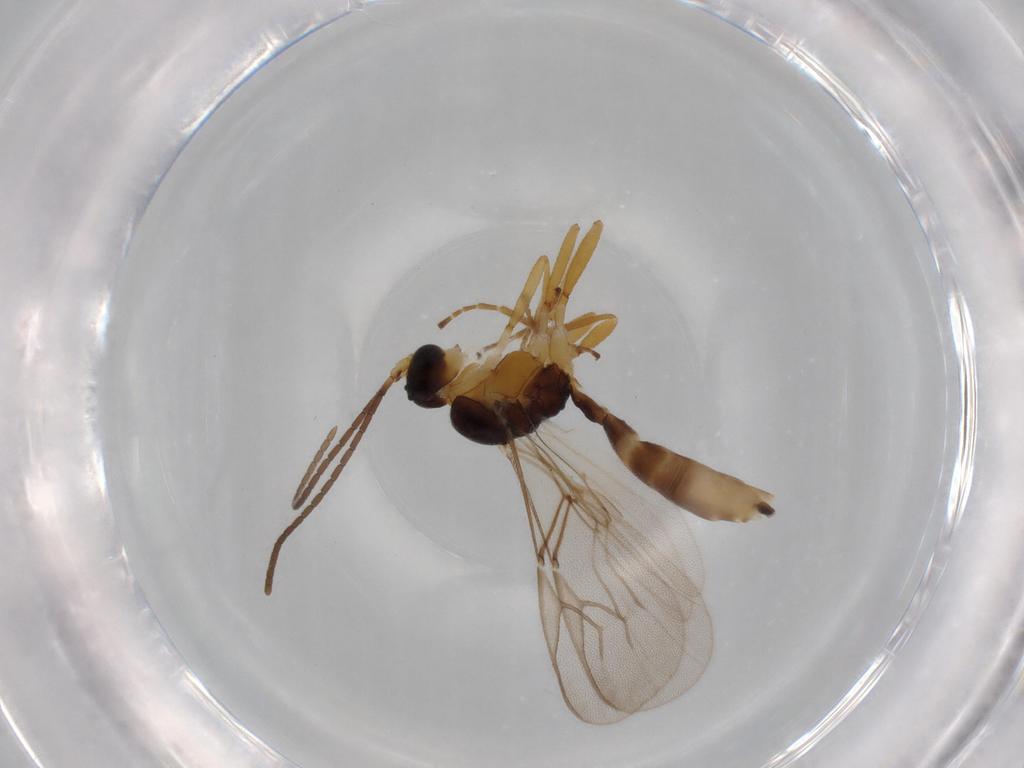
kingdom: Animalia
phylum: Arthropoda
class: Insecta
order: Hymenoptera
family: Braconidae
